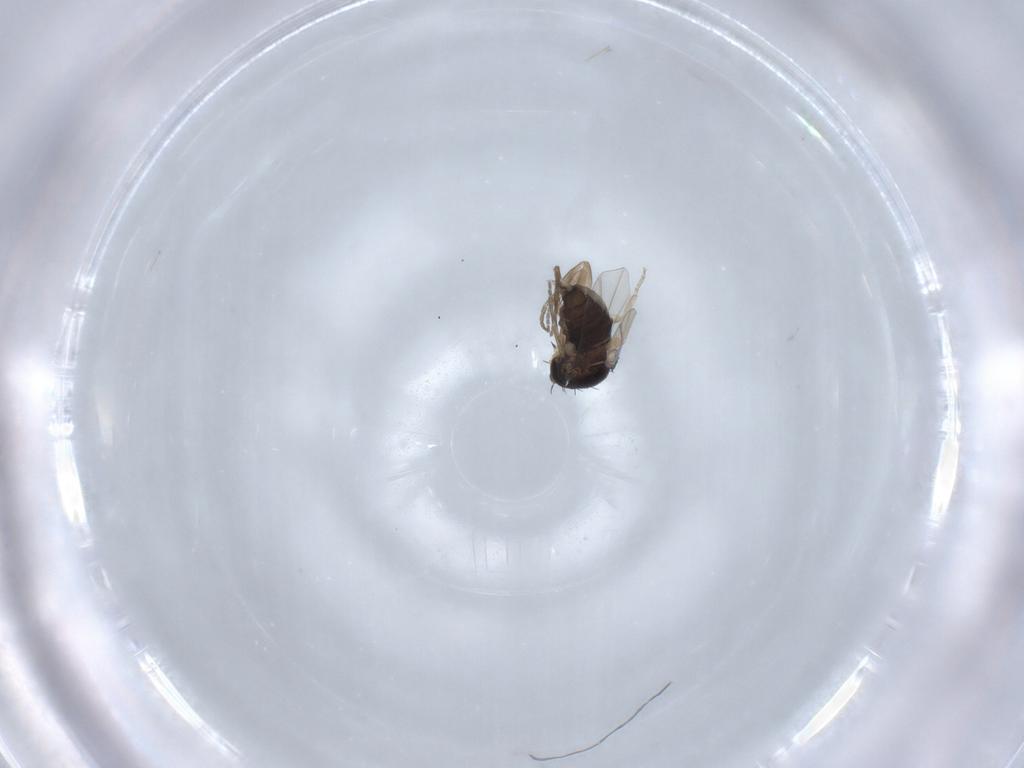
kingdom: Animalia
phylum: Arthropoda
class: Insecta
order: Diptera
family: Phoridae
